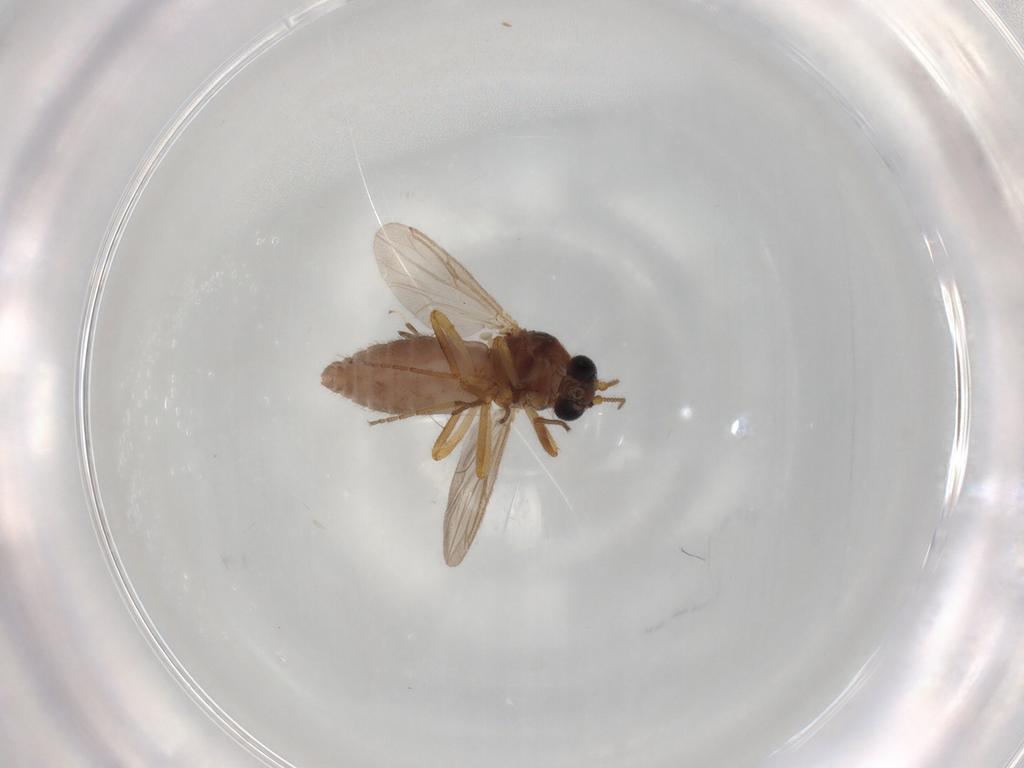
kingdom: Animalia
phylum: Arthropoda
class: Insecta
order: Diptera
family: Ceratopogonidae
